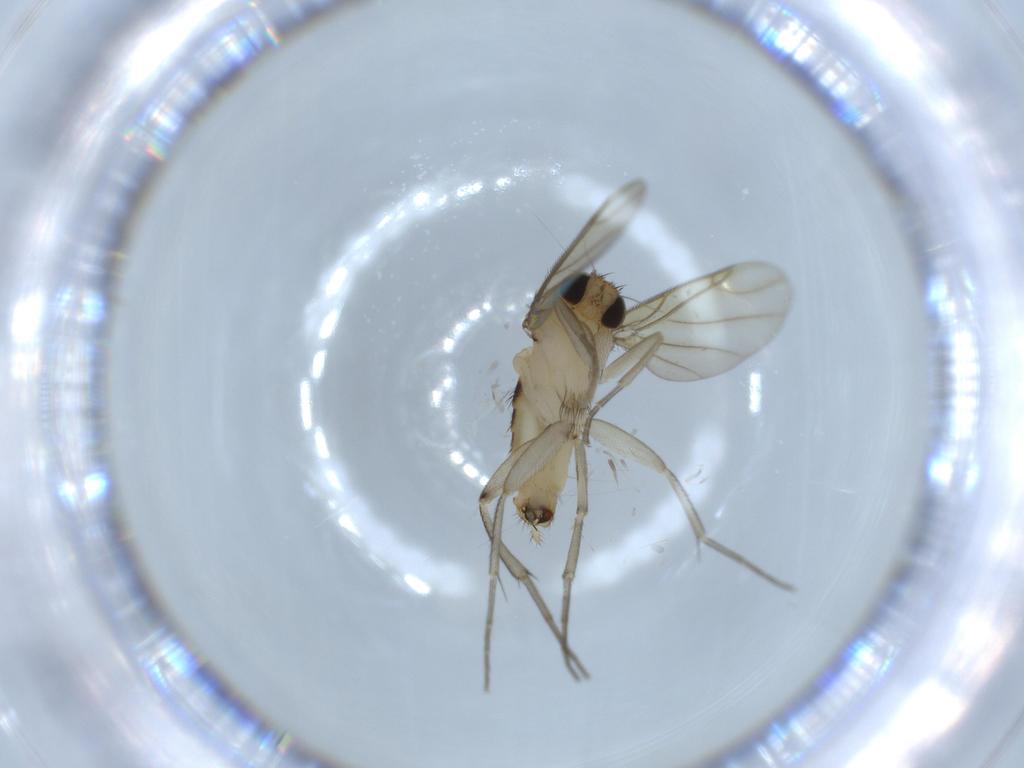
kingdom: Animalia
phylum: Arthropoda
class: Insecta
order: Diptera
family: Phoridae
